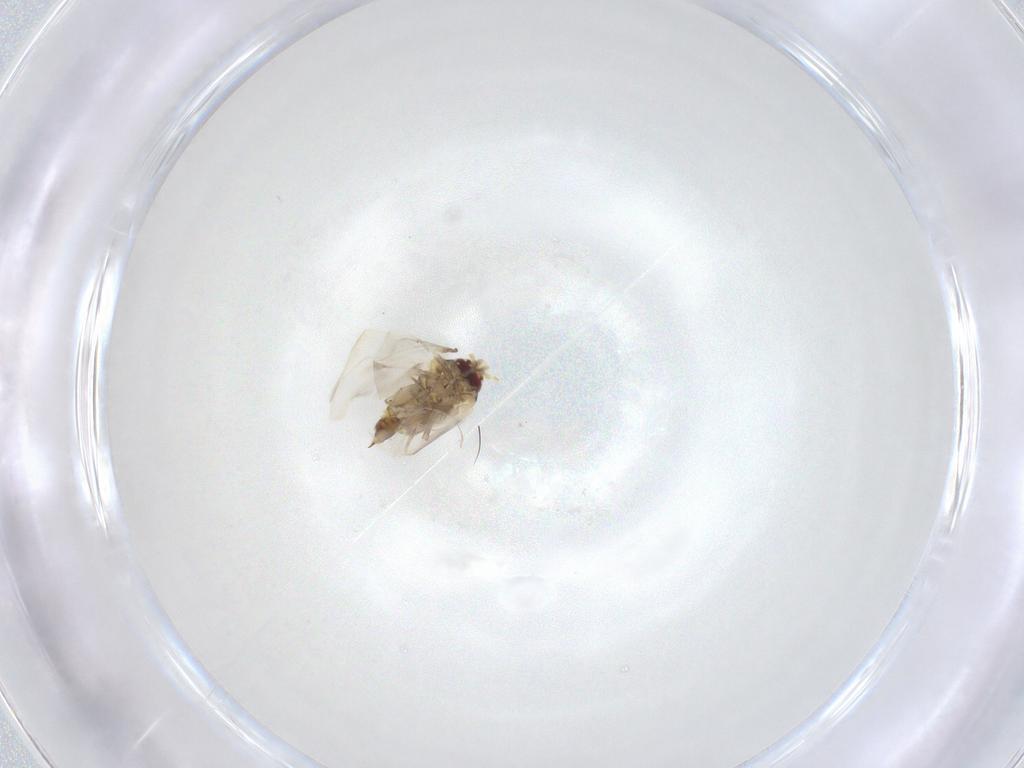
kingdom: Animalia
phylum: Arthropoda
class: Insecta
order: Hemiptera
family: Aleyrodidae
